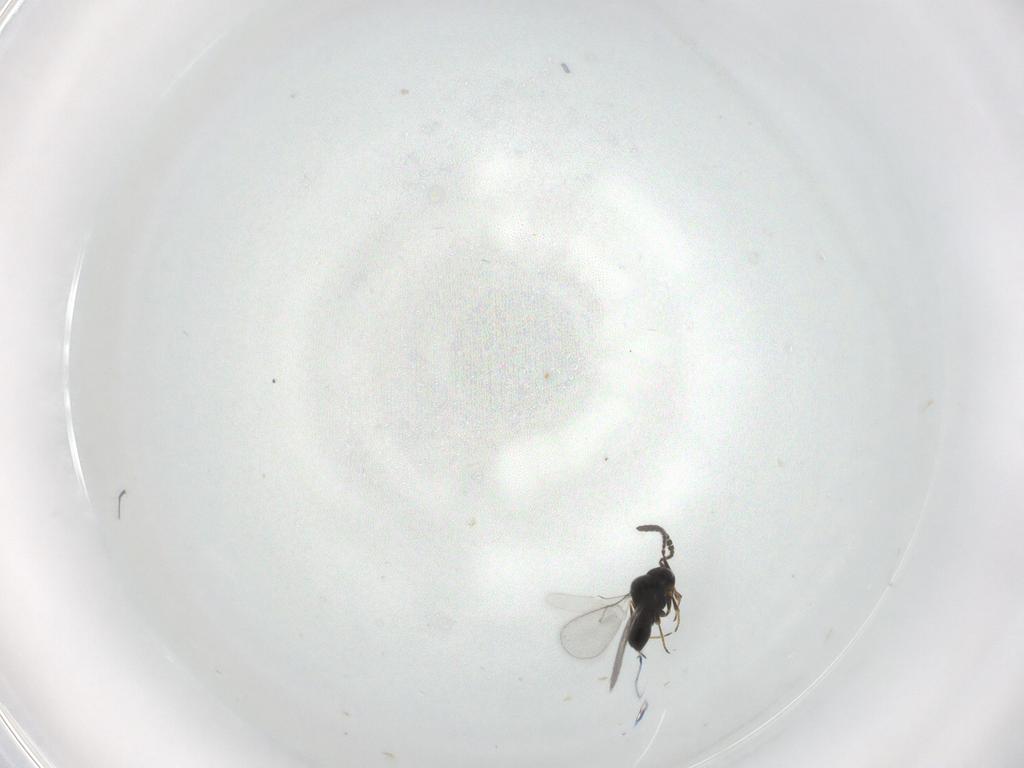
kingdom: Animalia
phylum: Arthropoda
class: Insecta
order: Hymenoptera
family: Scelionidae
